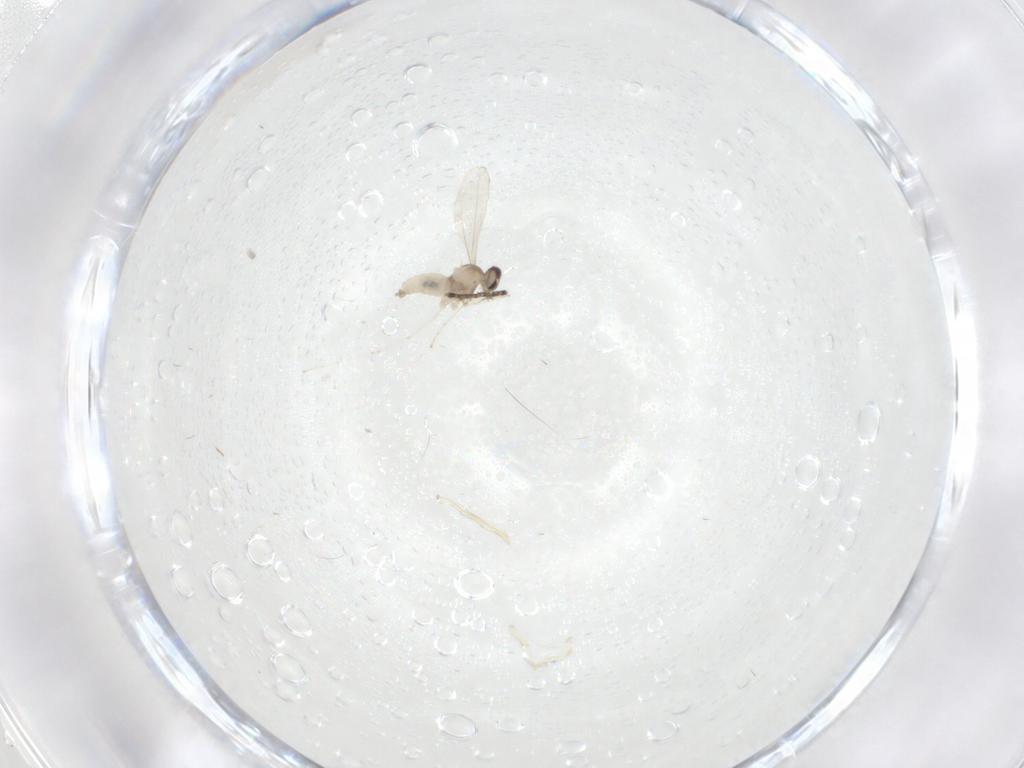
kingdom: Animalia
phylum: Arthropoda
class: Insecta
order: Diptera
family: Cecidomyiidae
